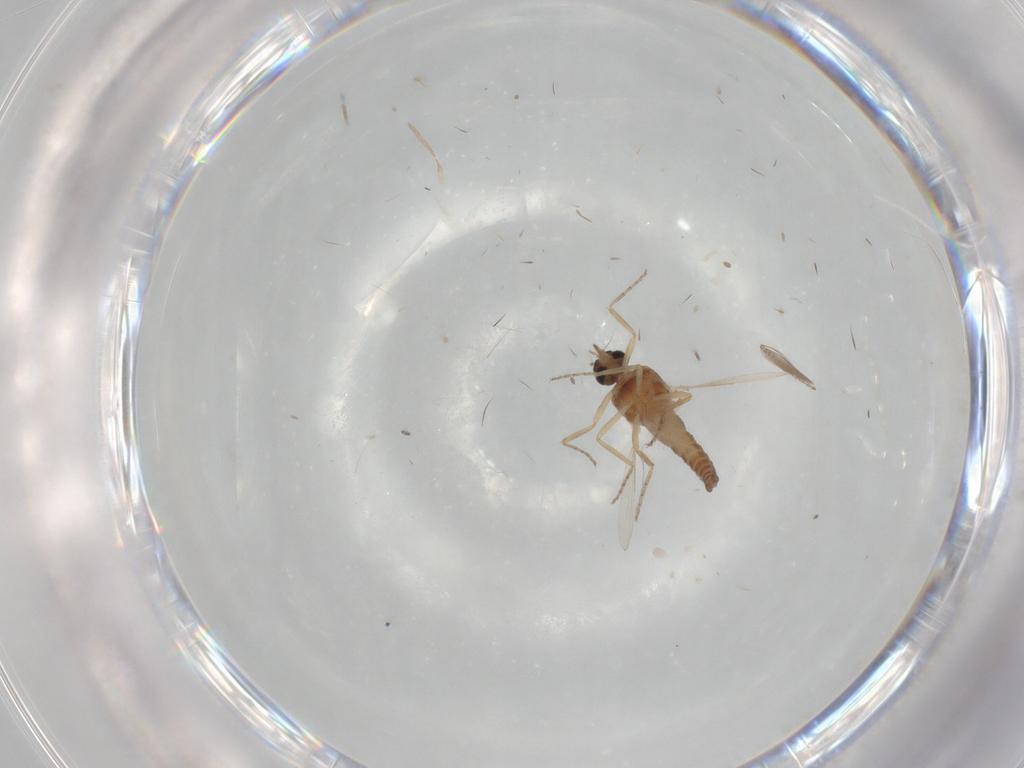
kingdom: Animalia
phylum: Arthropoda
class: Insecta
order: Diptera
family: Ceratopogonidae
